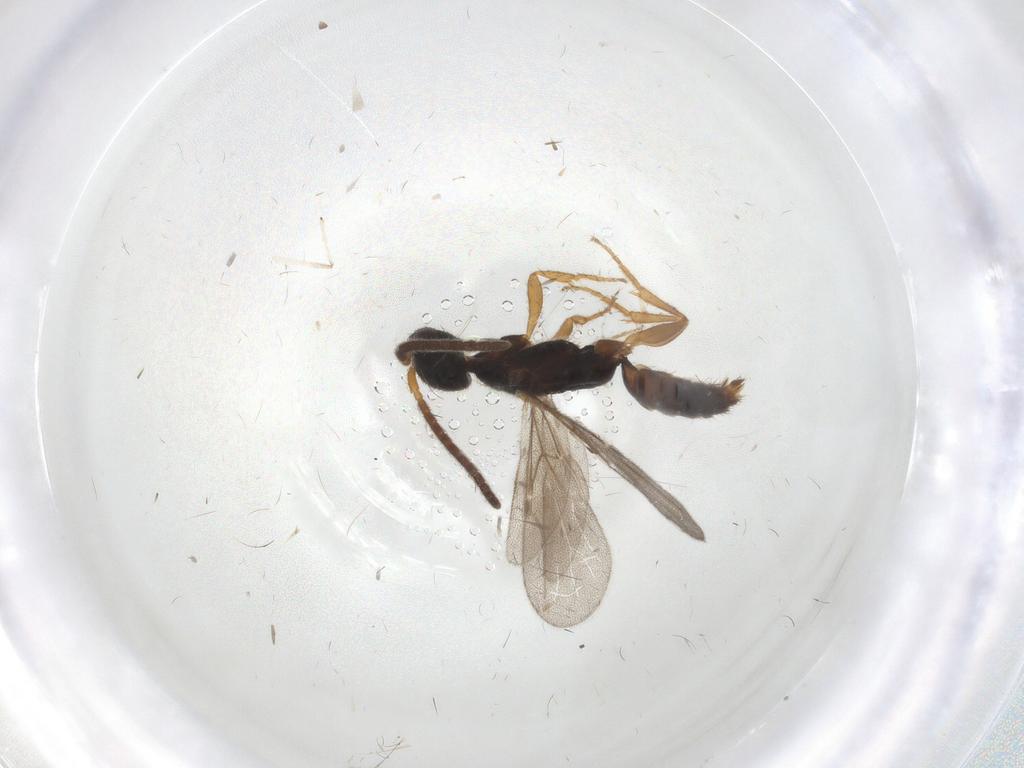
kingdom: Animalia
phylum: Arthropoda
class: Insecta
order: Hymenoptera
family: Bethylidae
